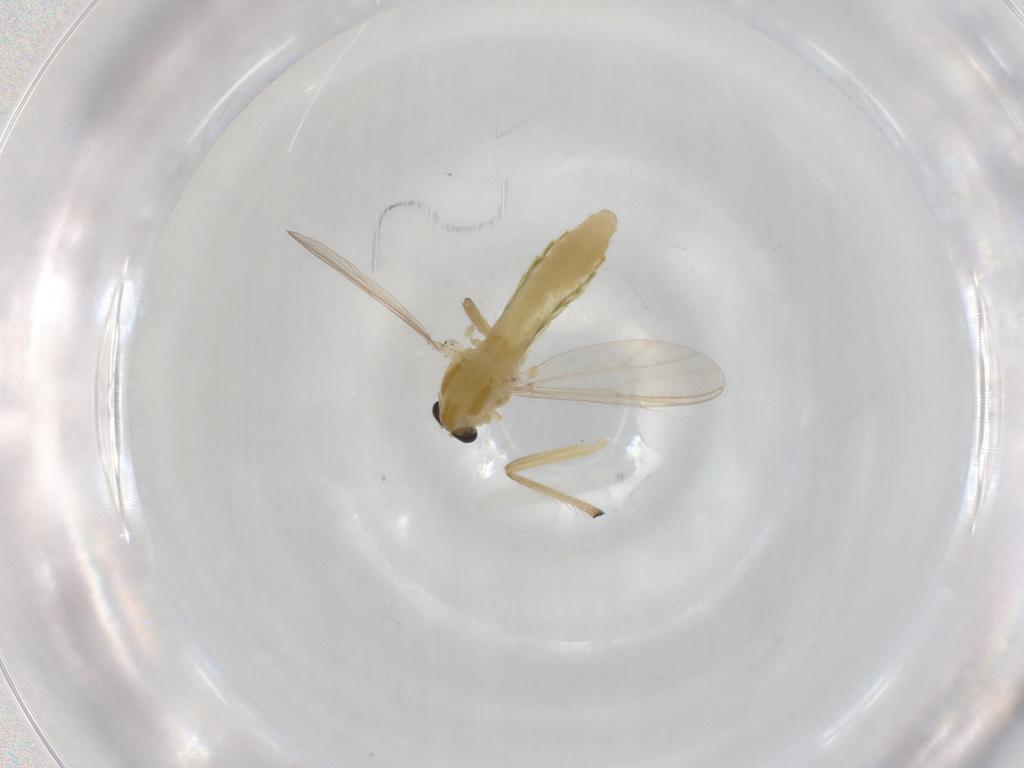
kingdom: Animalia
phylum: Arthropoda
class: Insecta
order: Diptera
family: Chironomidae
